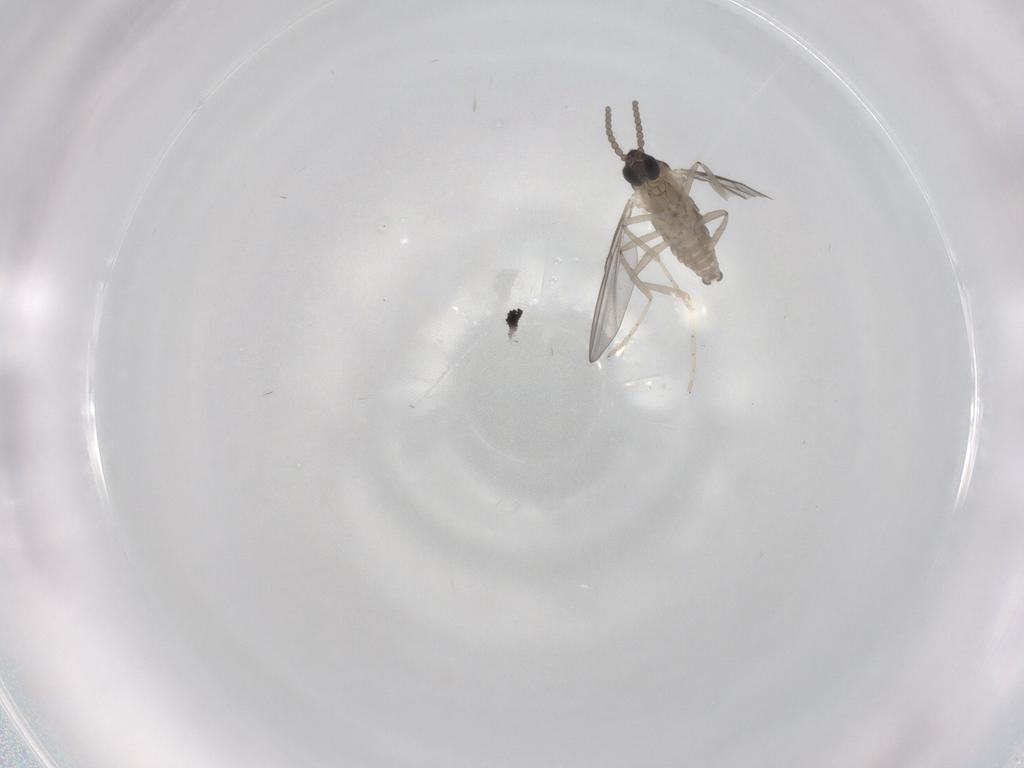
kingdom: Animalia
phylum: Arthropoda
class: Insecta
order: Diptera
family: Cecidomyiidae
